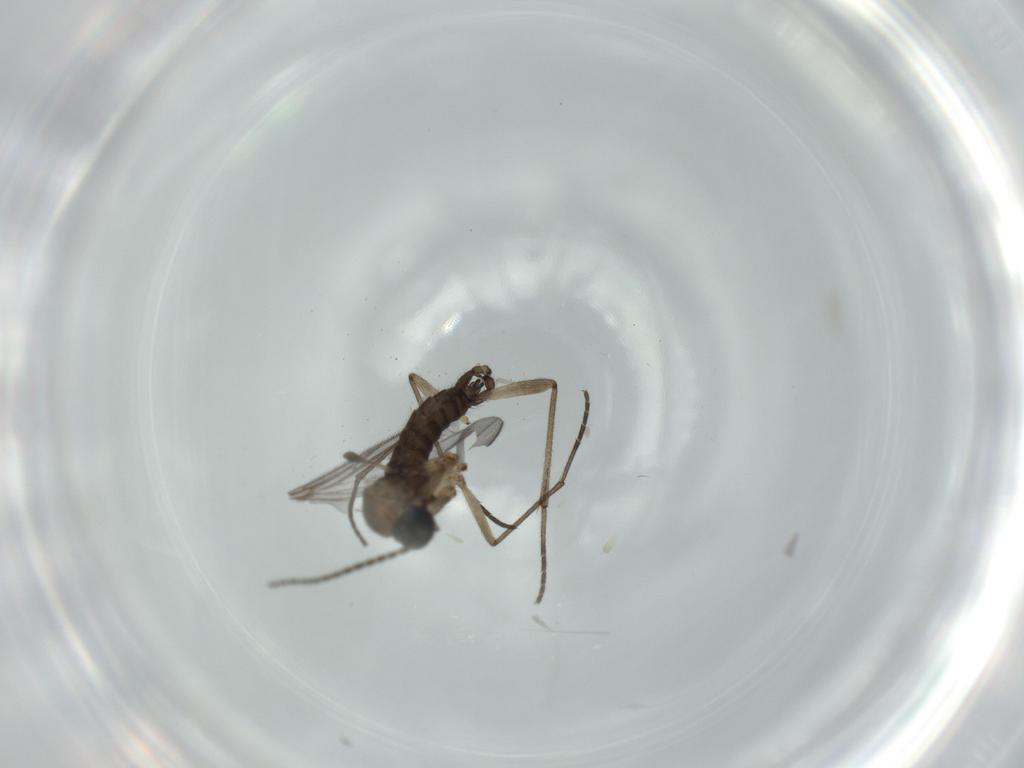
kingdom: Animalia
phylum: Arthropoda
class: Insecta
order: Diptera
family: Sciaridae
